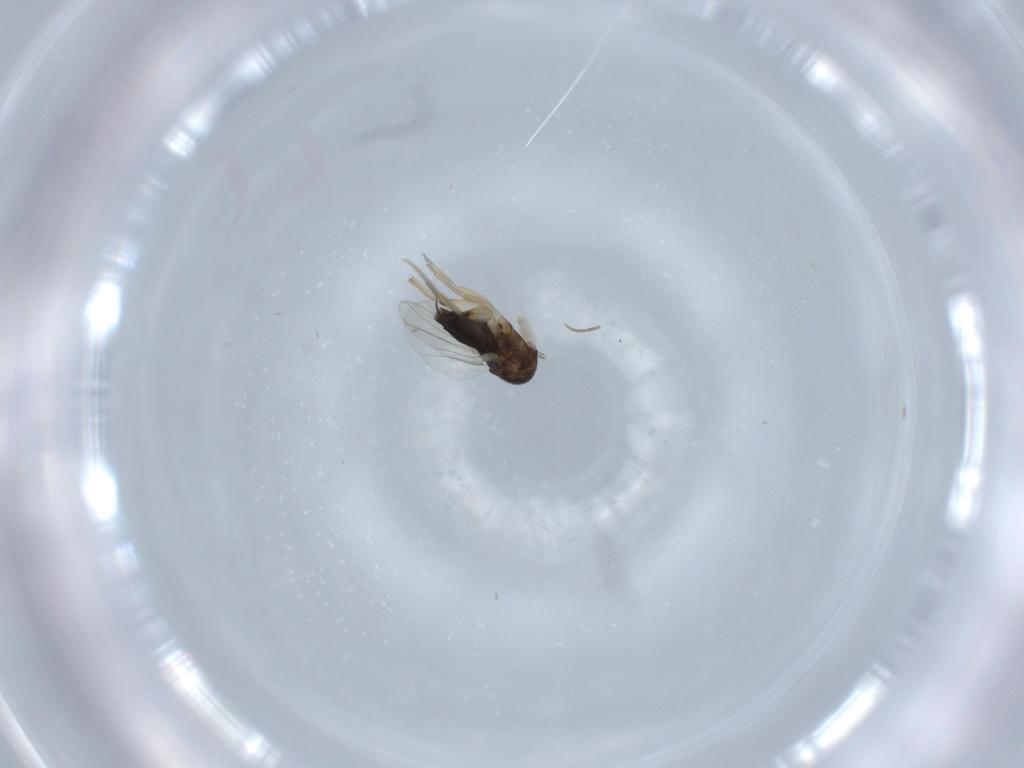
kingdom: Animalia
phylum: Arthropoda
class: Insecta
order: Diptera
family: Phoridae
